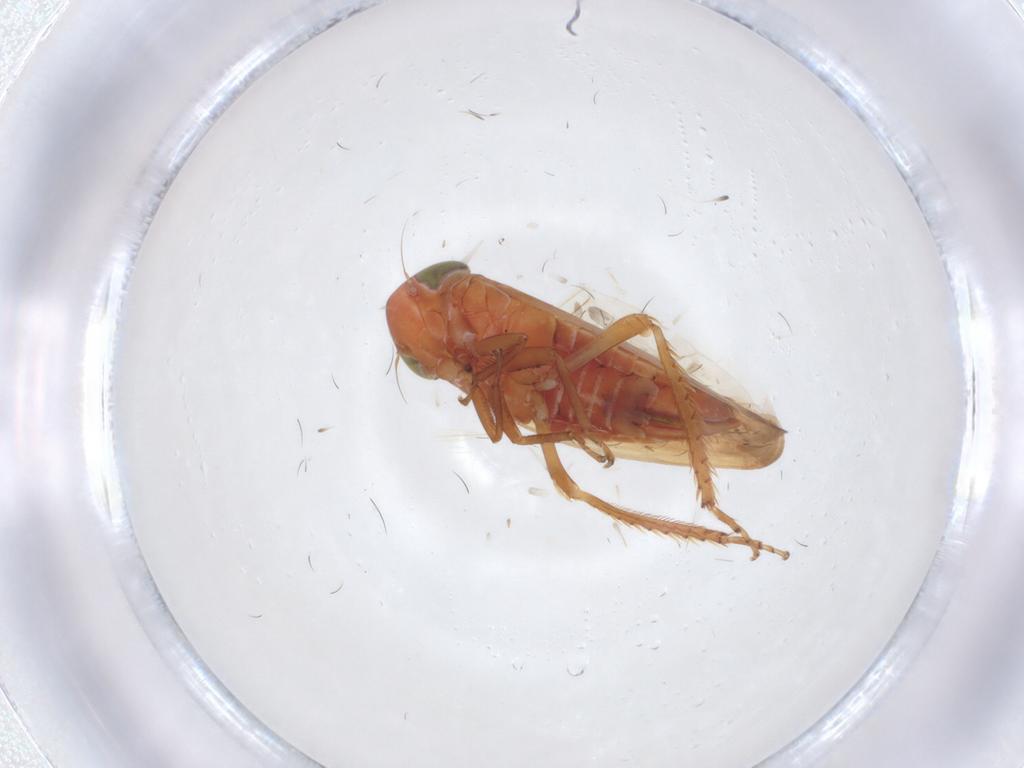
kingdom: Animalia
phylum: Arthropoda
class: Insecta
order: Hemiptera
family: Cicadellidae
